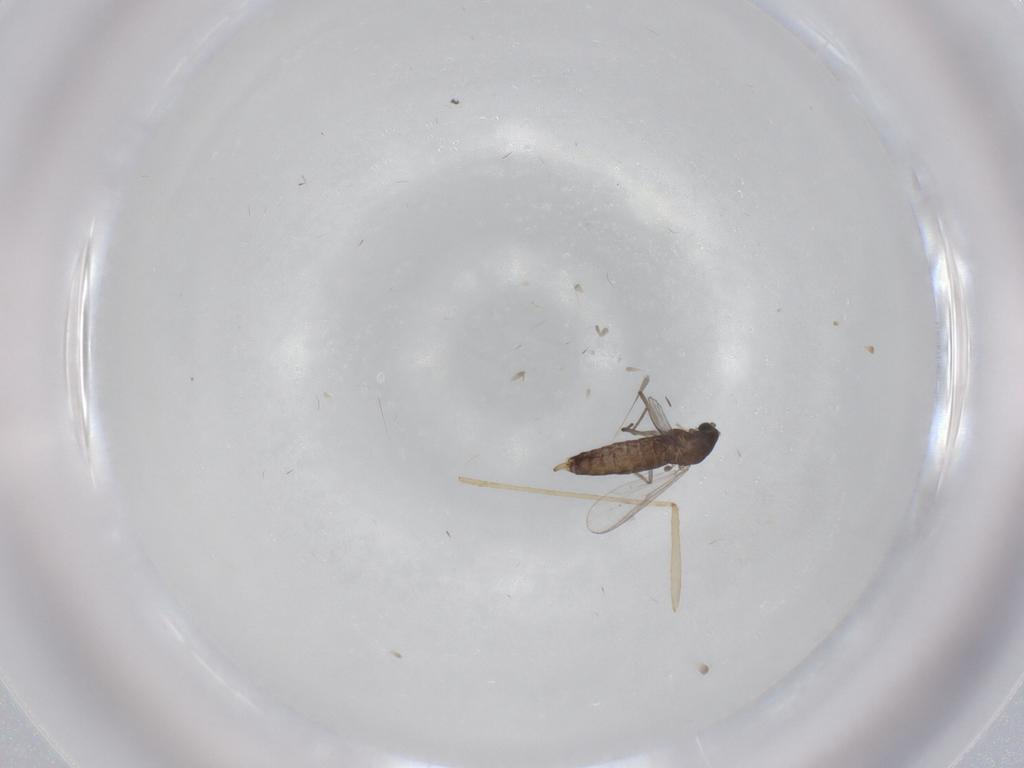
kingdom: Animalia
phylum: Arthropoda
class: Insecta
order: Diptera
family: Chironomidae
